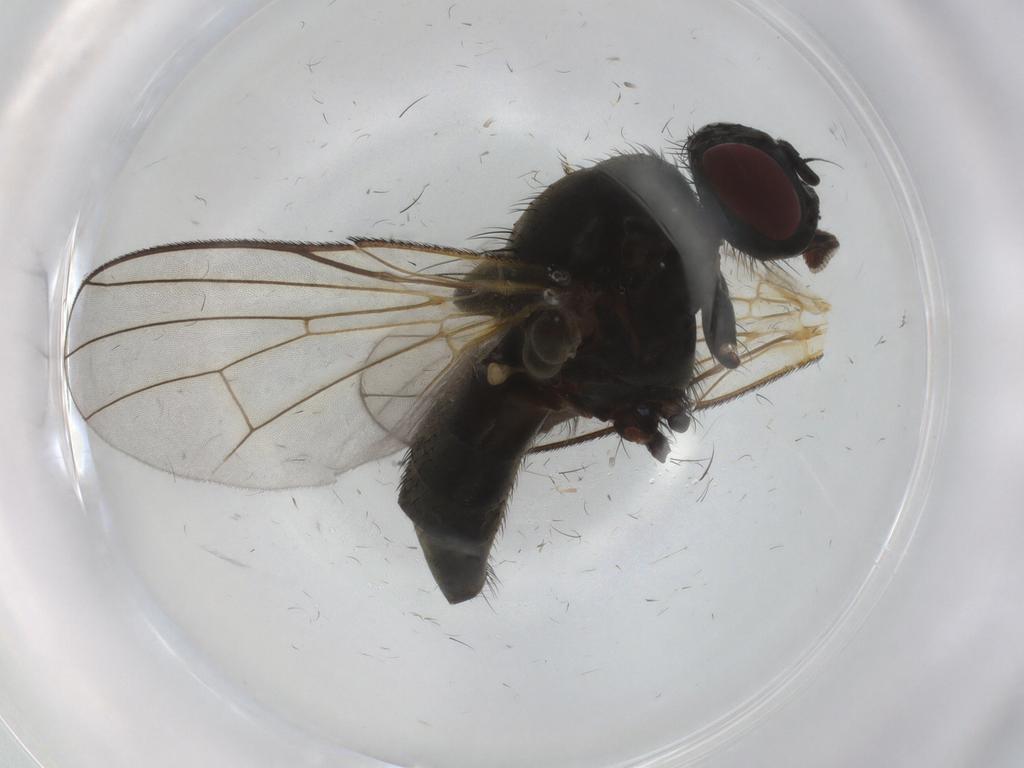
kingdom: Animalia
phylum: Arthropoda
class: Insecta
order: Diptera
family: Muscidae
